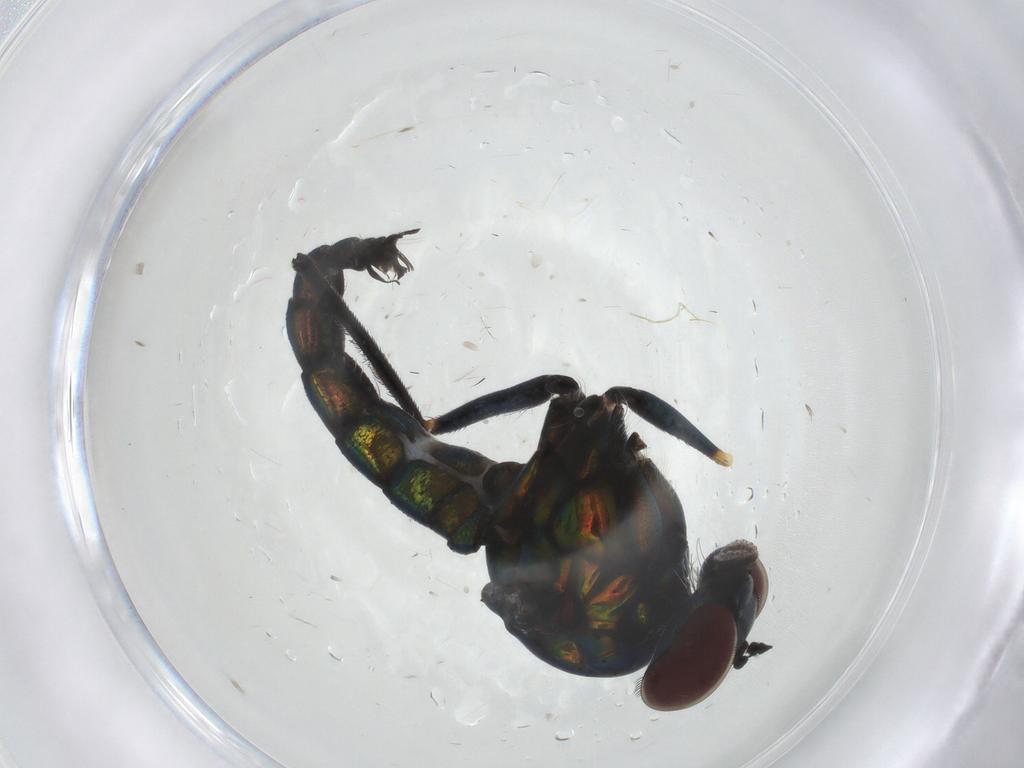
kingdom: Animalia
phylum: Arthropoda
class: Insecta
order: Diptera
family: Dolichopodidae
